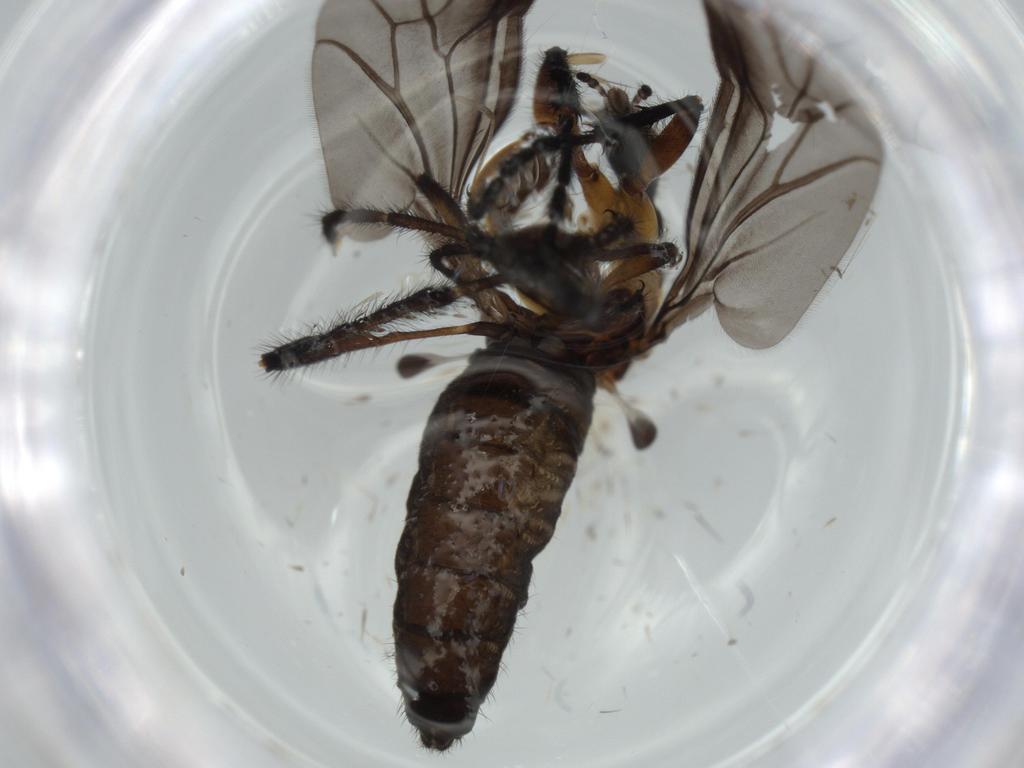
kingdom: Animalia
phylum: Arthropoda
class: Insecta
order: Diptera
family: Bibionidae
